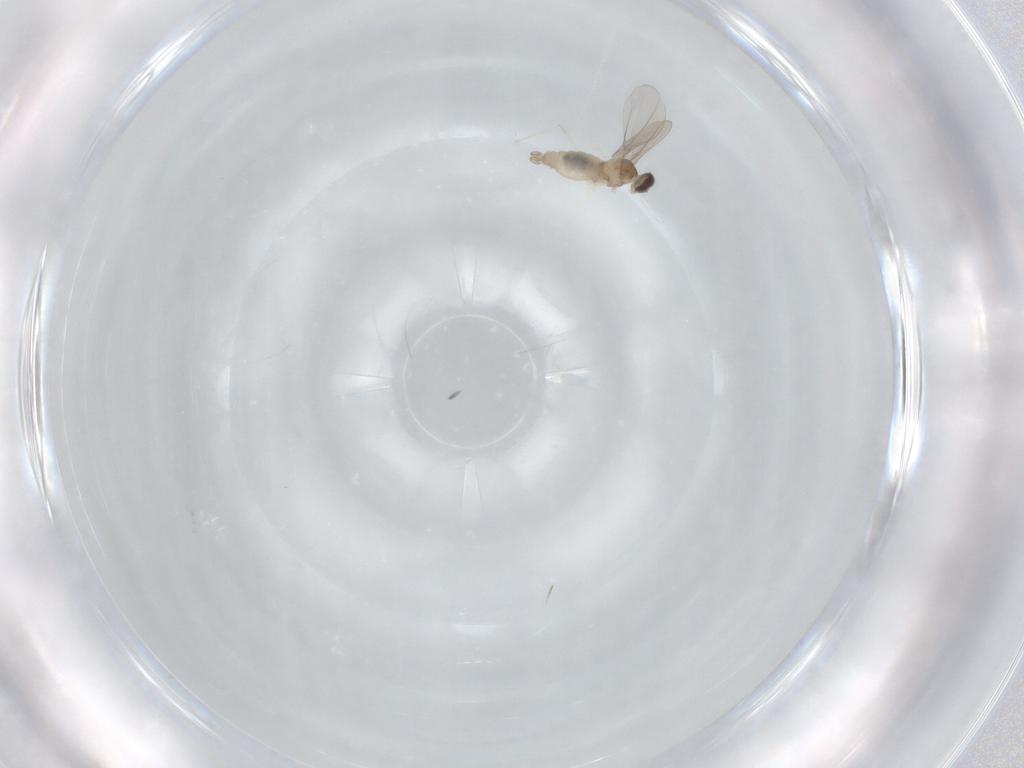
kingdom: Animalia
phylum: Arthropoda
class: Insecta
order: Diptera
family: Cecidomyiidae
